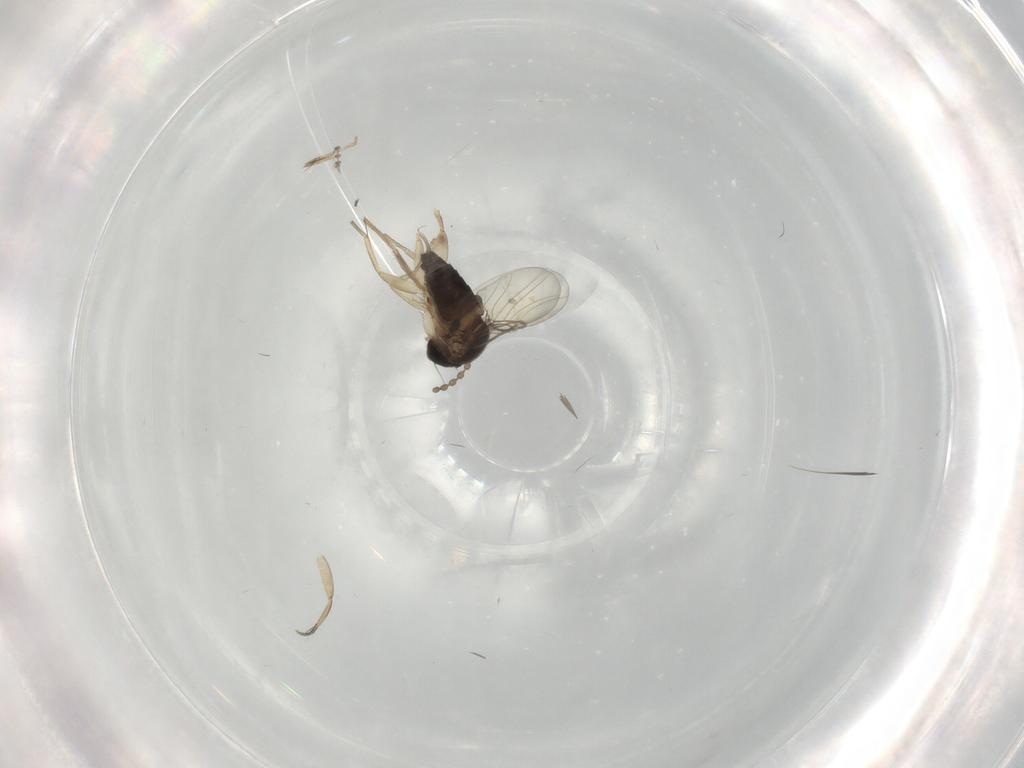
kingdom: Animalia
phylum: Arthropoda
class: Insecta
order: Diptera
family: Phoridae
